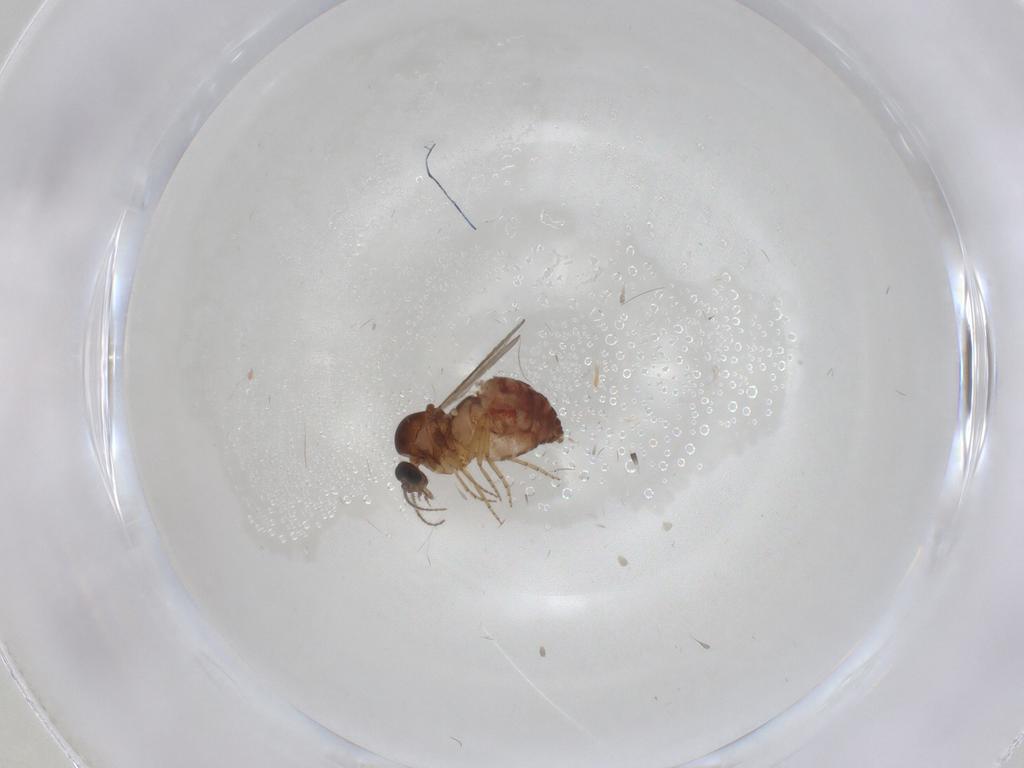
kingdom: Animalia
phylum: Arthropoda
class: Insecta
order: Diptera
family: Ceratopogonidae
